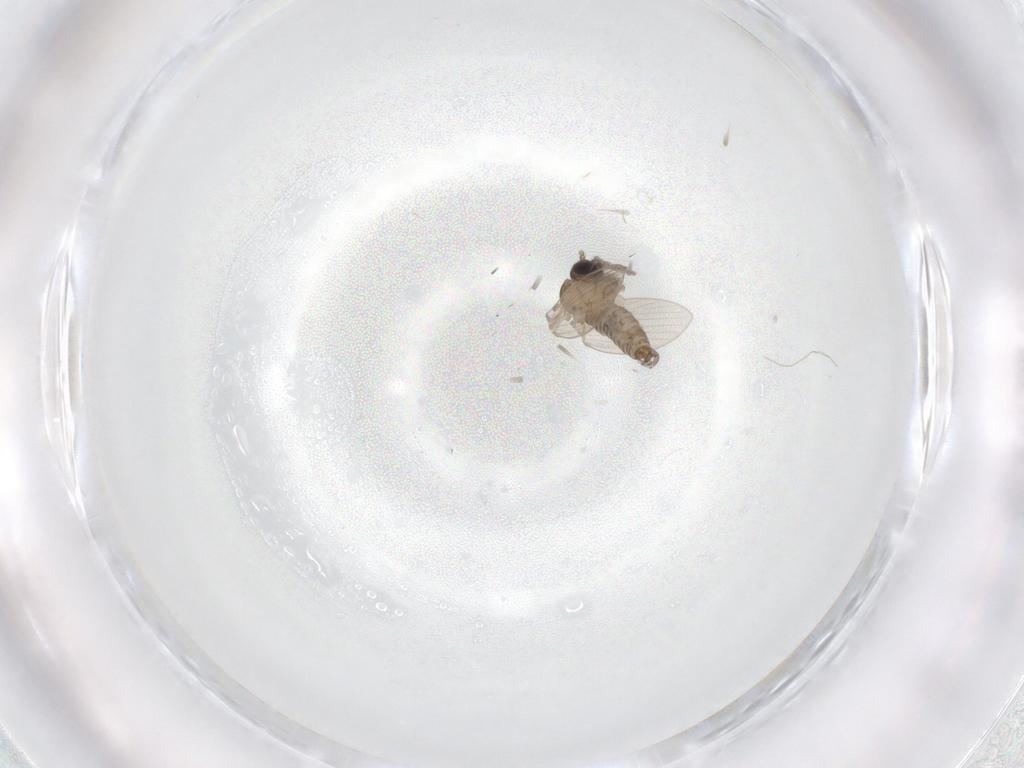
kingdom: Animalia
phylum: Arthropoda
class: Insecta
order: Diptera
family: Psychodidae
